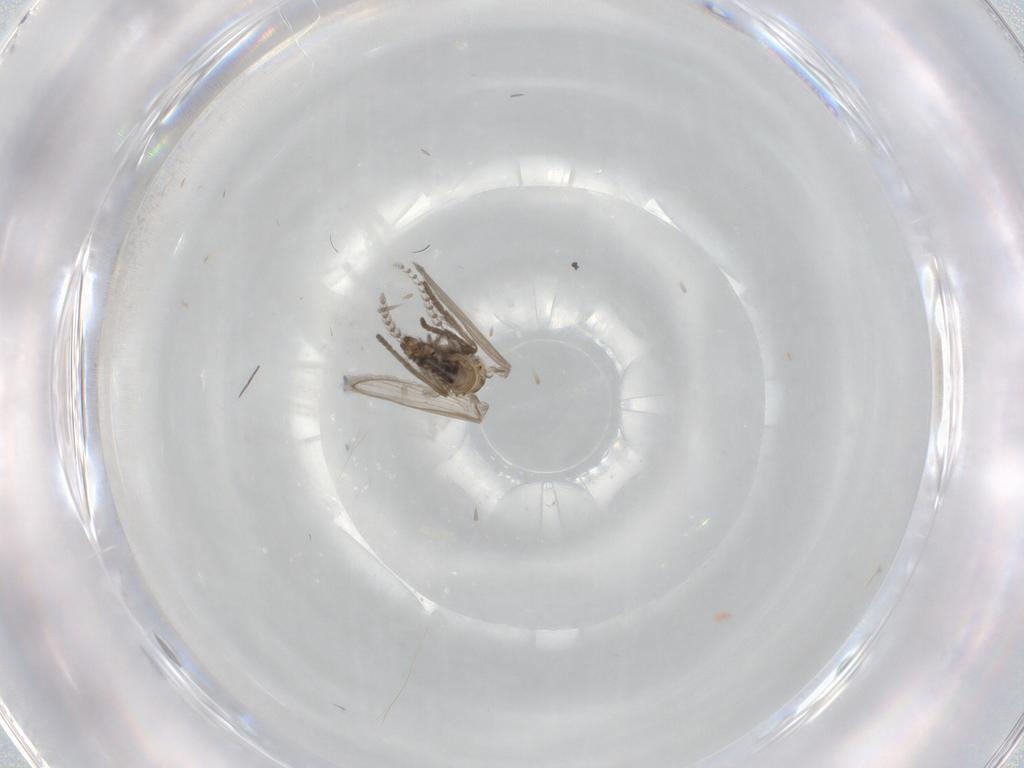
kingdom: Animalia
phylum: Arthropoda
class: Insecta
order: Diptera
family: Psychodidae
